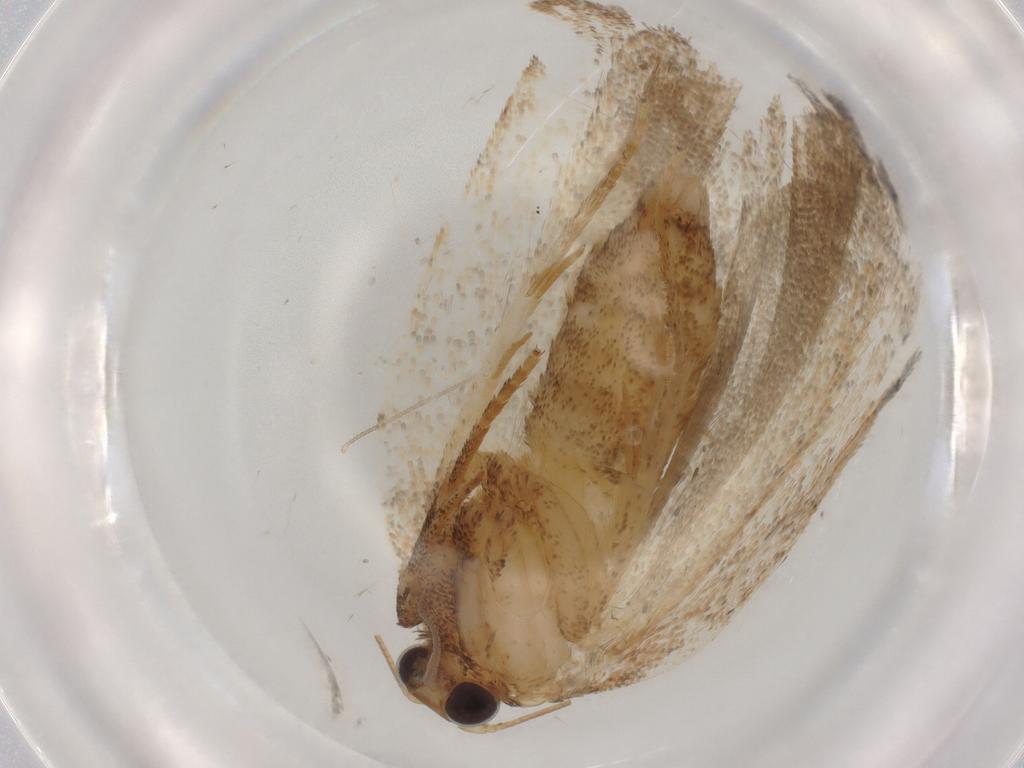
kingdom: Animalia
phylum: Arthropoda
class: Insecta
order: Lepidoptera
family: Tortricidae
